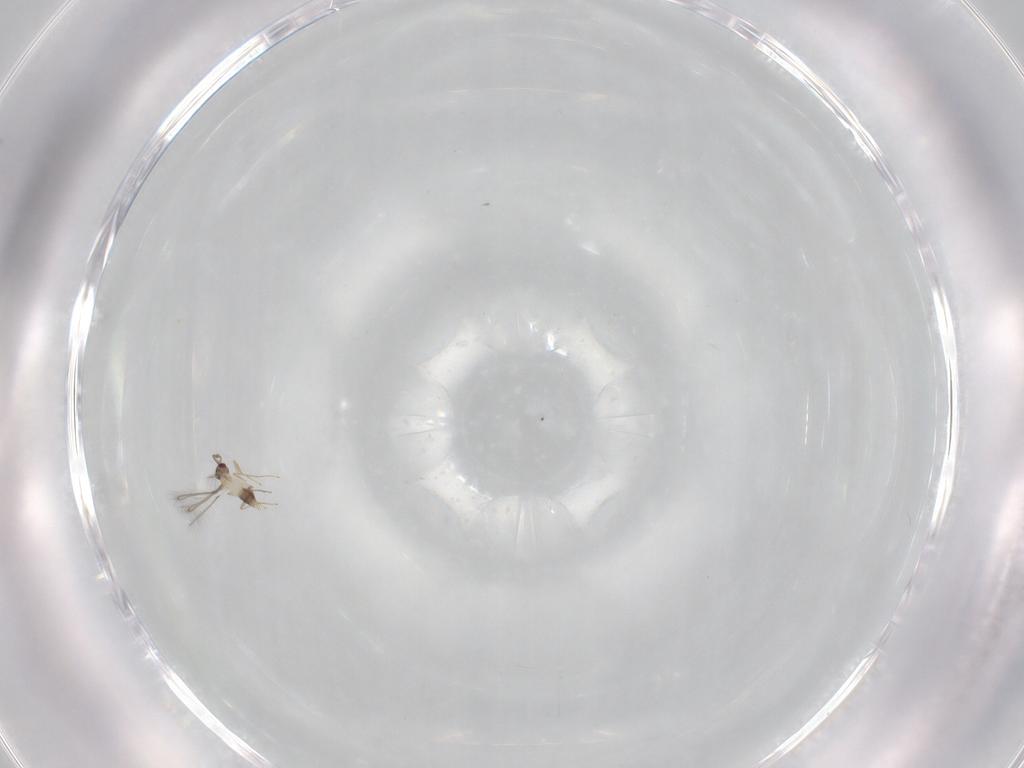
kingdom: Animalia
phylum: Arthropoda
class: Insecta
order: Hymenoptera
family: Mymaridae
